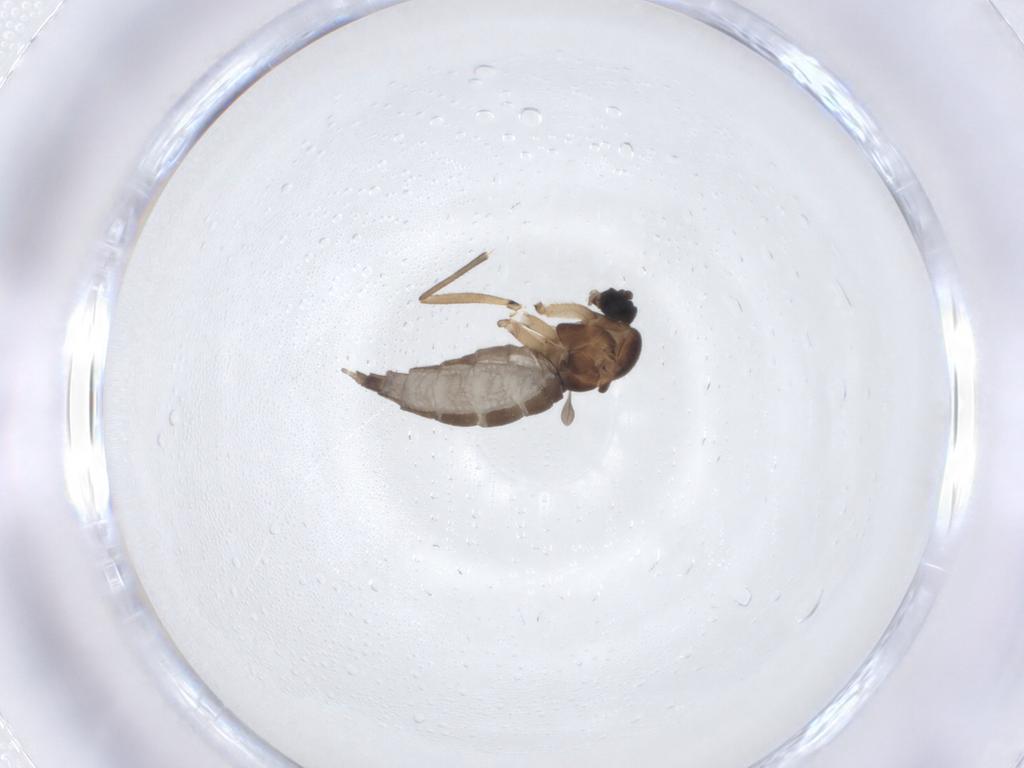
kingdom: Animalia
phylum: Arthropoda
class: Insecta
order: Diptera
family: Sciaridae
